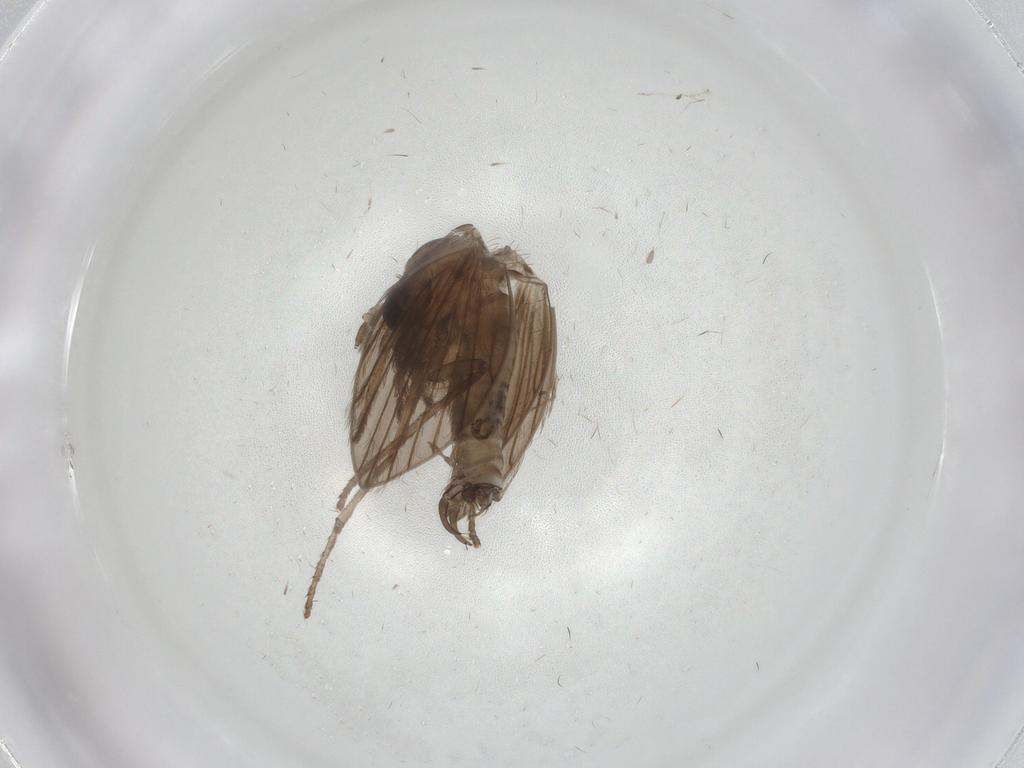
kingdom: Animalia
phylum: Arthropoda
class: Insecta
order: Diptera
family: Psychodidae
